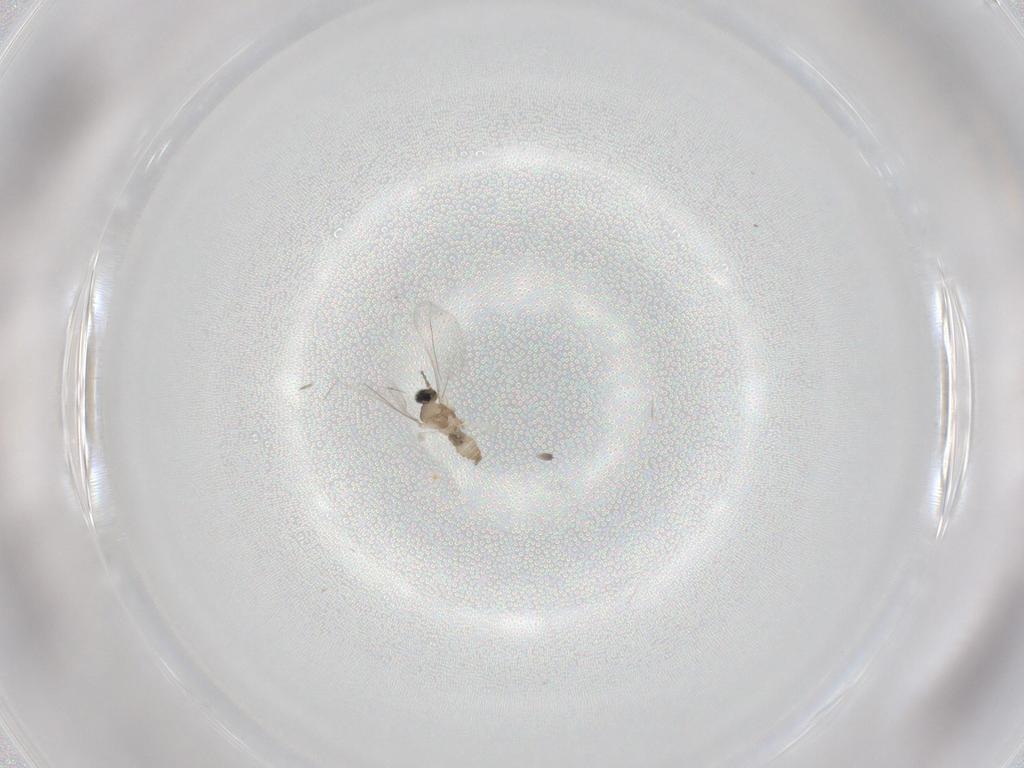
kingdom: Animalia
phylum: Arthropoda
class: Insecta
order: Diptera
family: Cecidomyiidae
